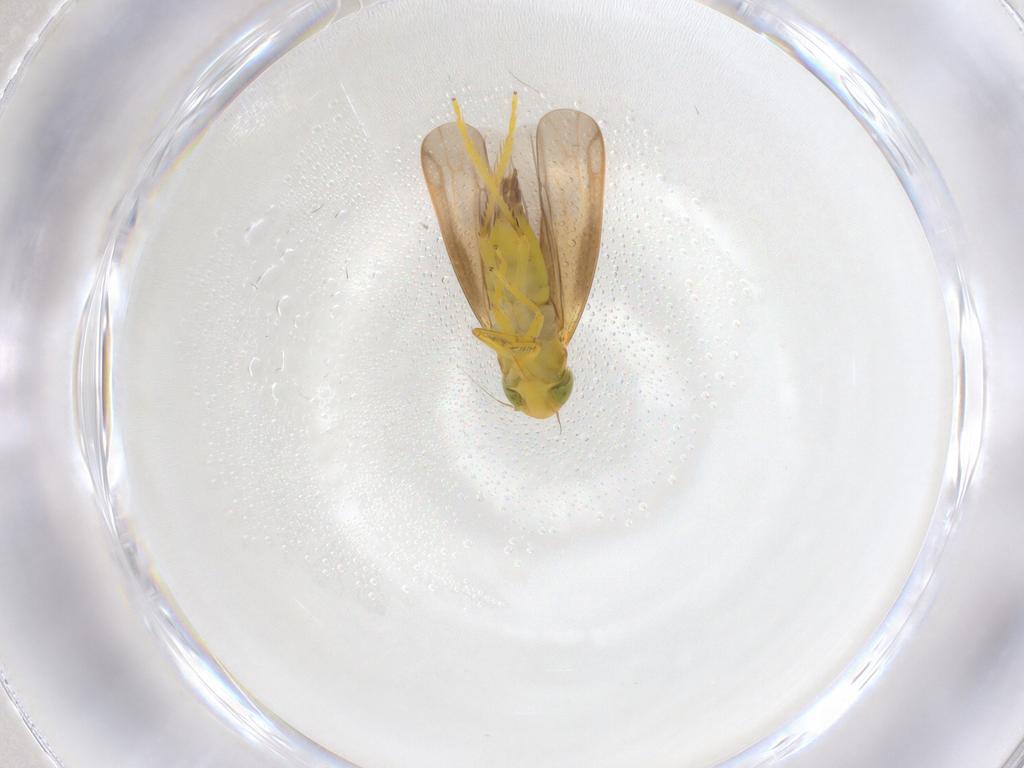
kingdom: Animalia
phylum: Arthropoda
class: Insecta
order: Hemiptera
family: Cicadellidae
